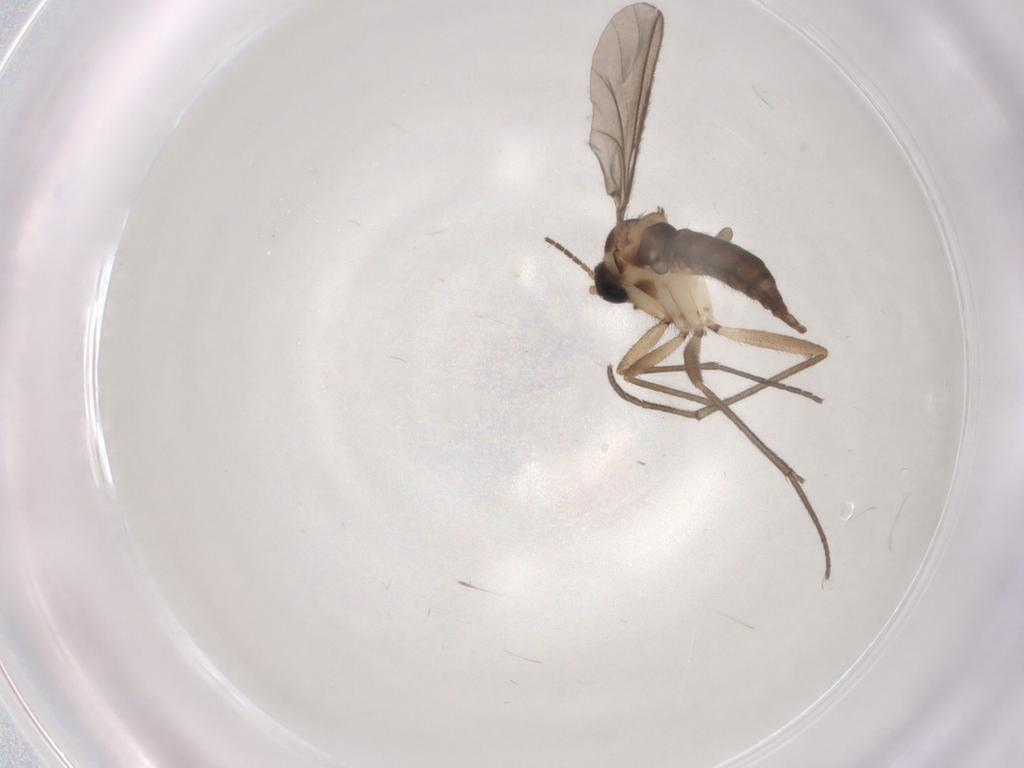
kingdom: Animalia
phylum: Arthropoda
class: Insecta
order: Diptera
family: Sciaridae
